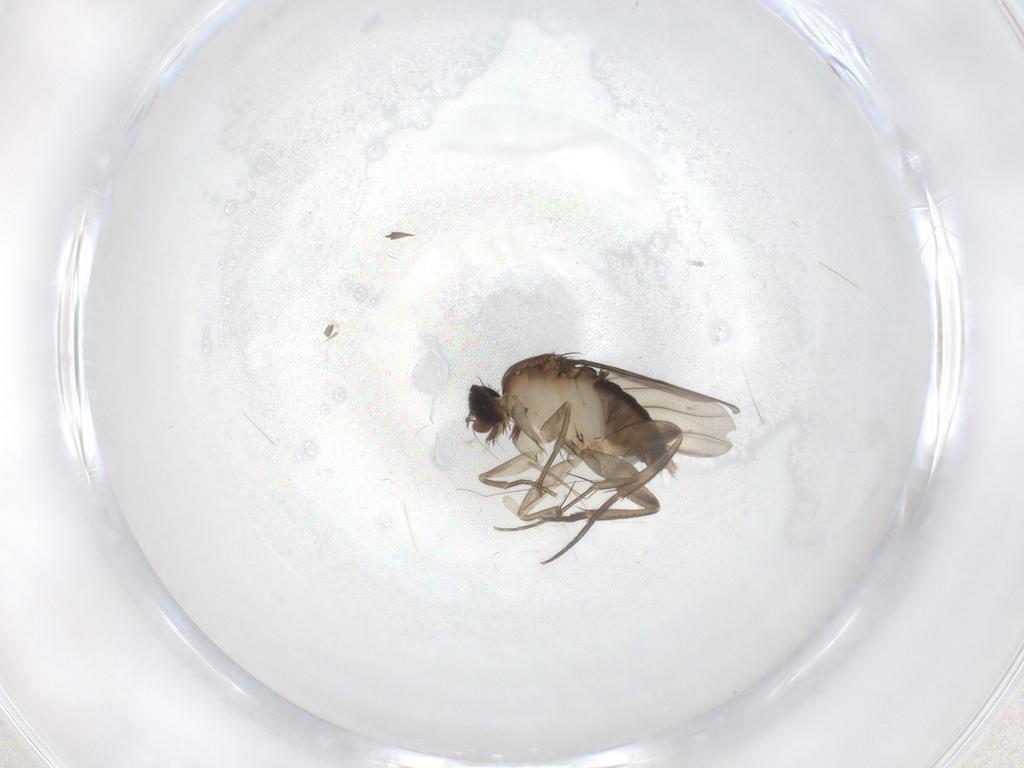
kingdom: Animalia
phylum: Arthropoda
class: Insecta
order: Diptera
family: Phoridae
